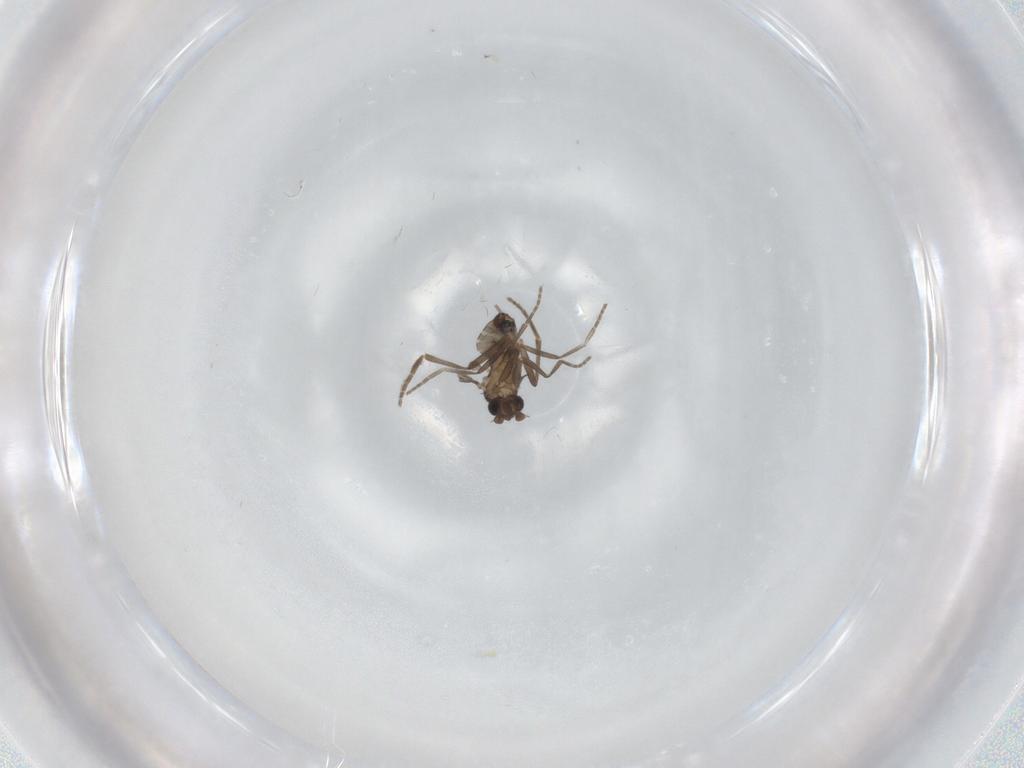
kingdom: Animalia
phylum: Arthropoda
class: Insecta
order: Diptera
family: Phoridae
